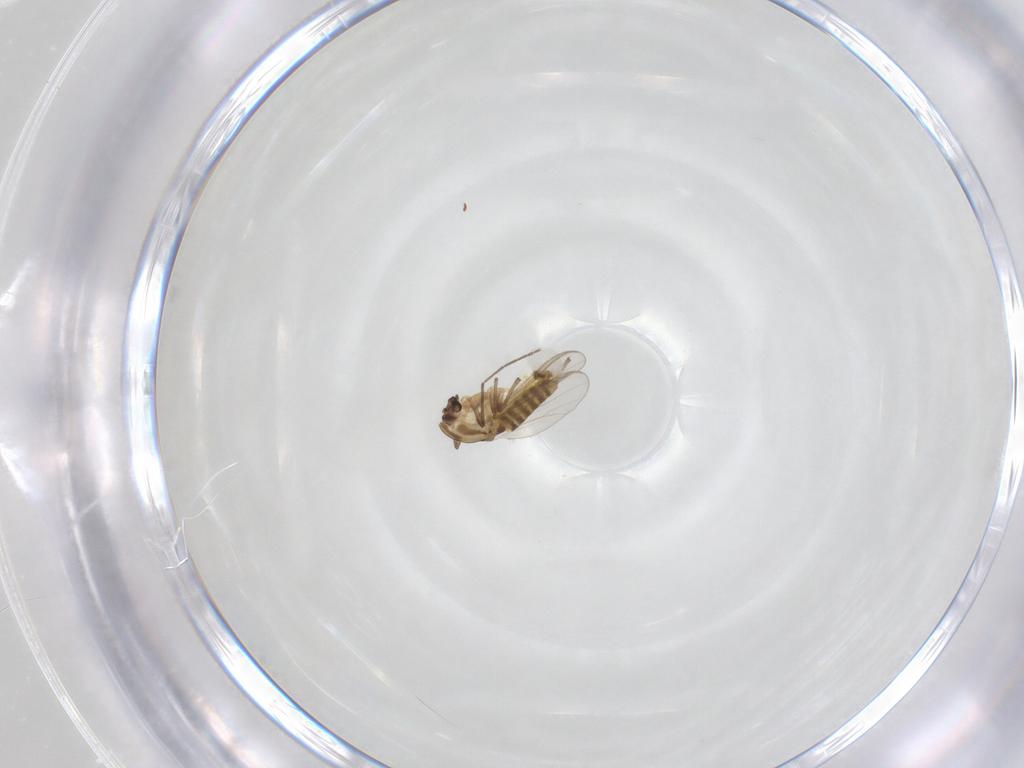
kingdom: Animalia
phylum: Arthropoda
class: Insecta
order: Diptera
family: Chironomidae
